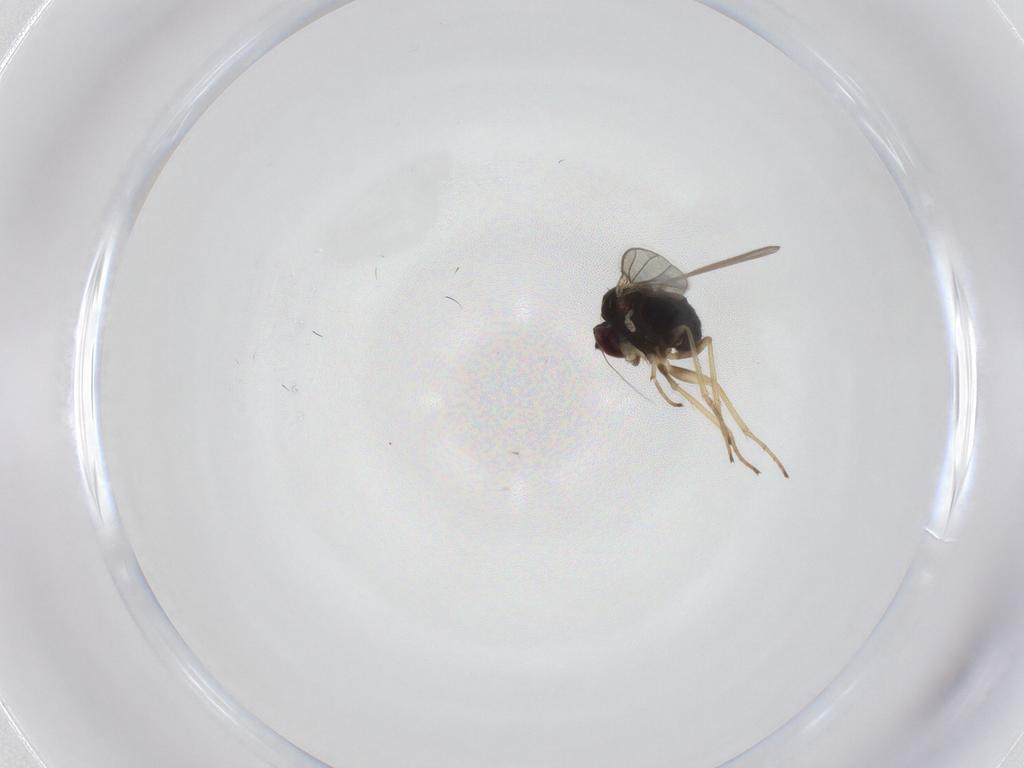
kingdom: Animalia
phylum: Arthropoda
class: Insecta
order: Diptera
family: Dolichopodidae
